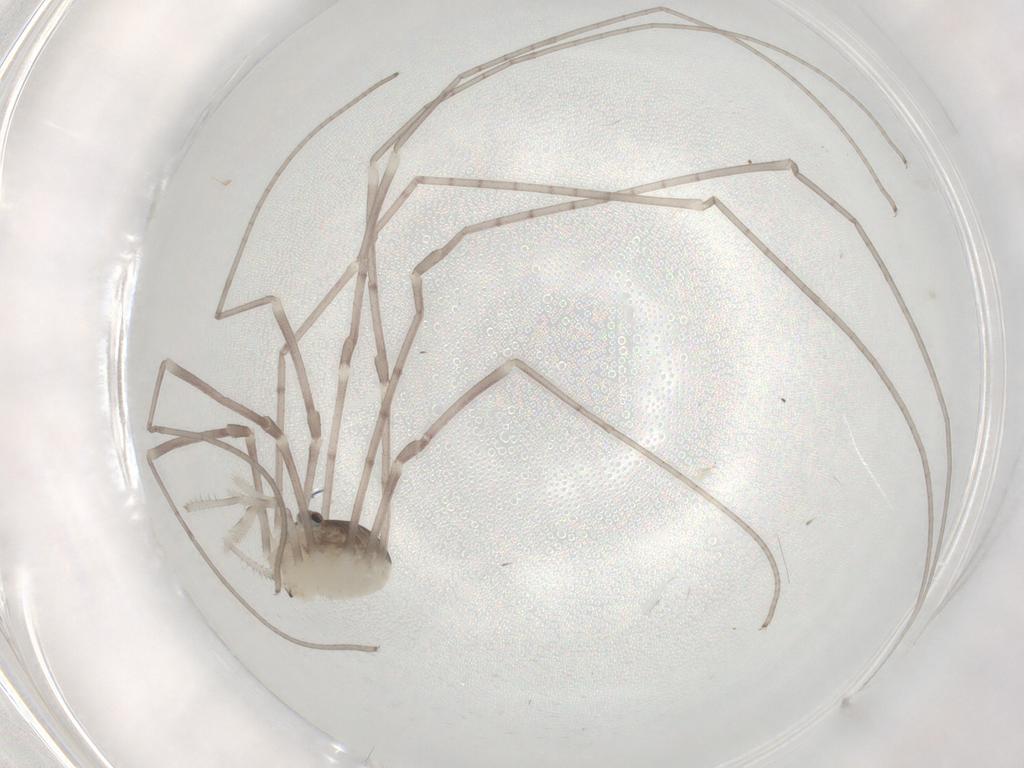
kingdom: Animalia
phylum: Arthropoda
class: Arachnida
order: Opiliones
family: Sclerosomatidae
